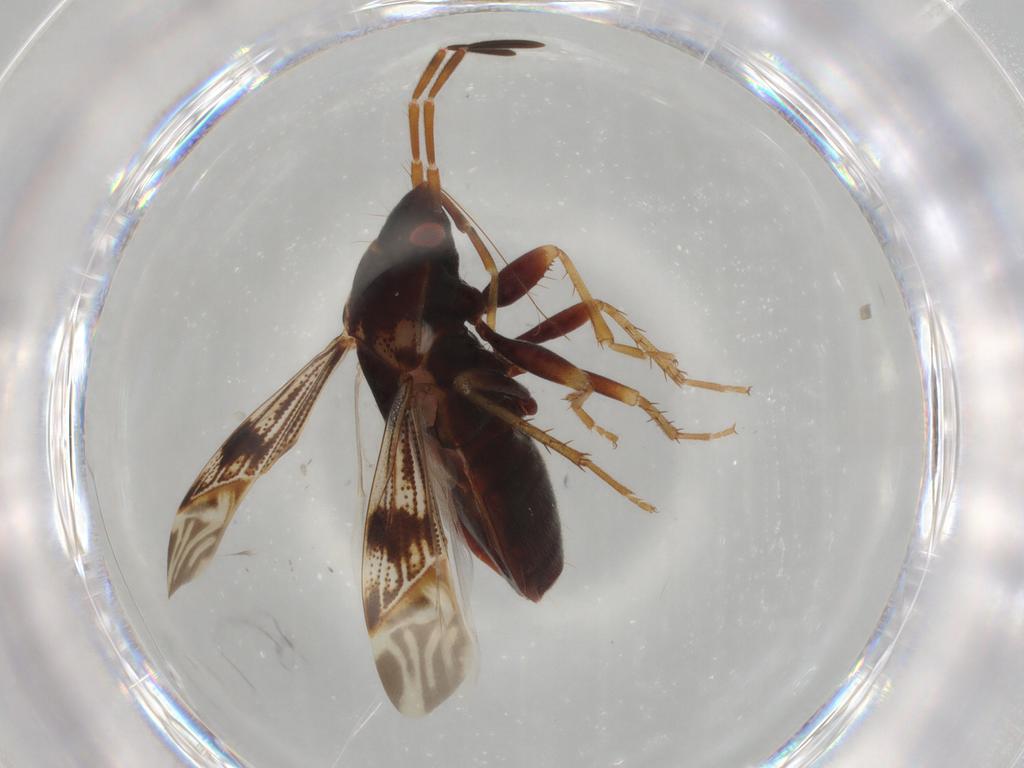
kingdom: Animalia
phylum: Arthropoda
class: Insecta
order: Hemiptera
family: Rhyparochromidae
